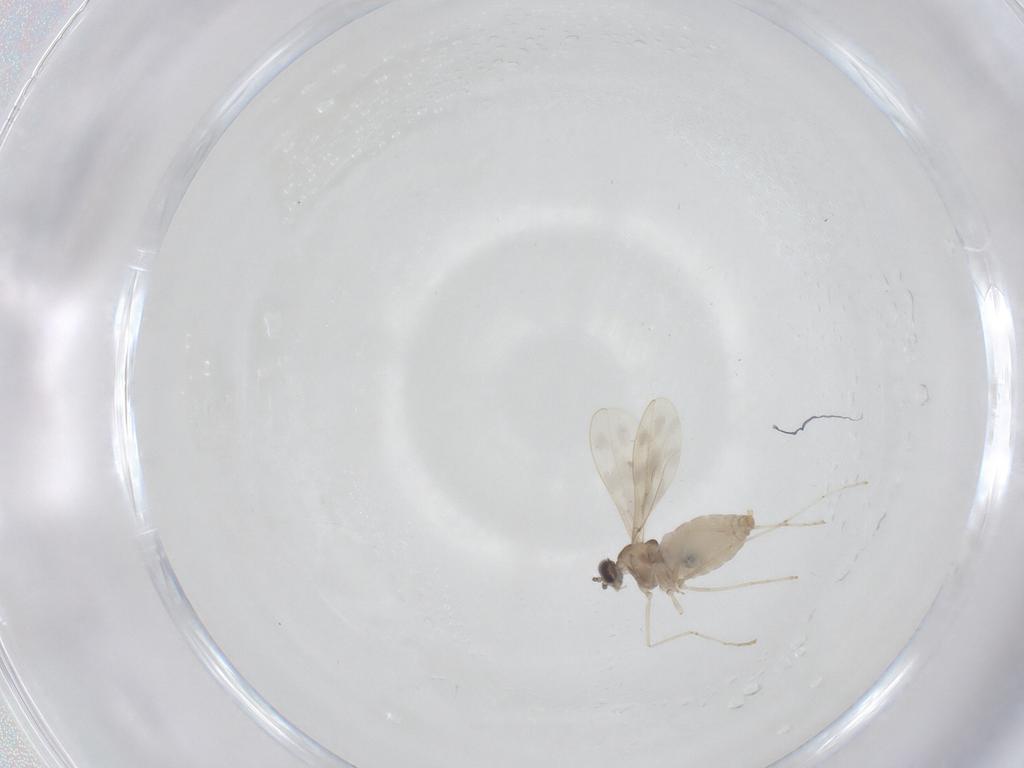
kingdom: Animalia
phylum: Arthropoda
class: Insecta
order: Diptera
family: Cecidomyiidae
